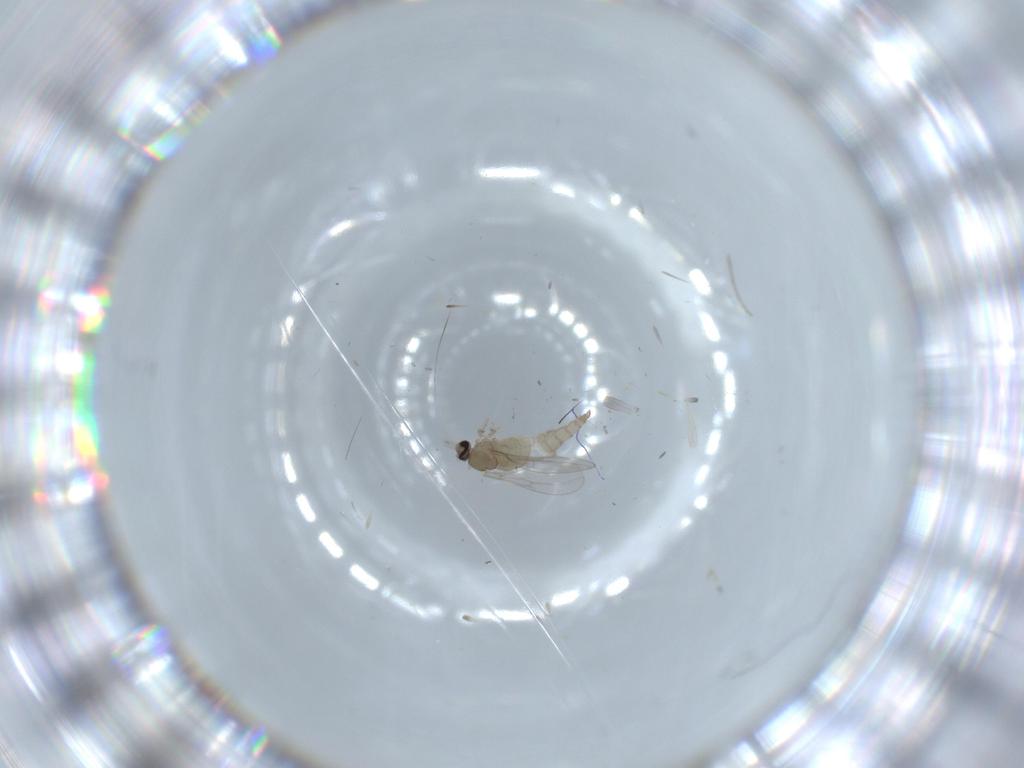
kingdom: Animalia
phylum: Arthropoda
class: Insecta
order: Diptera
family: Cecidomyiidae
